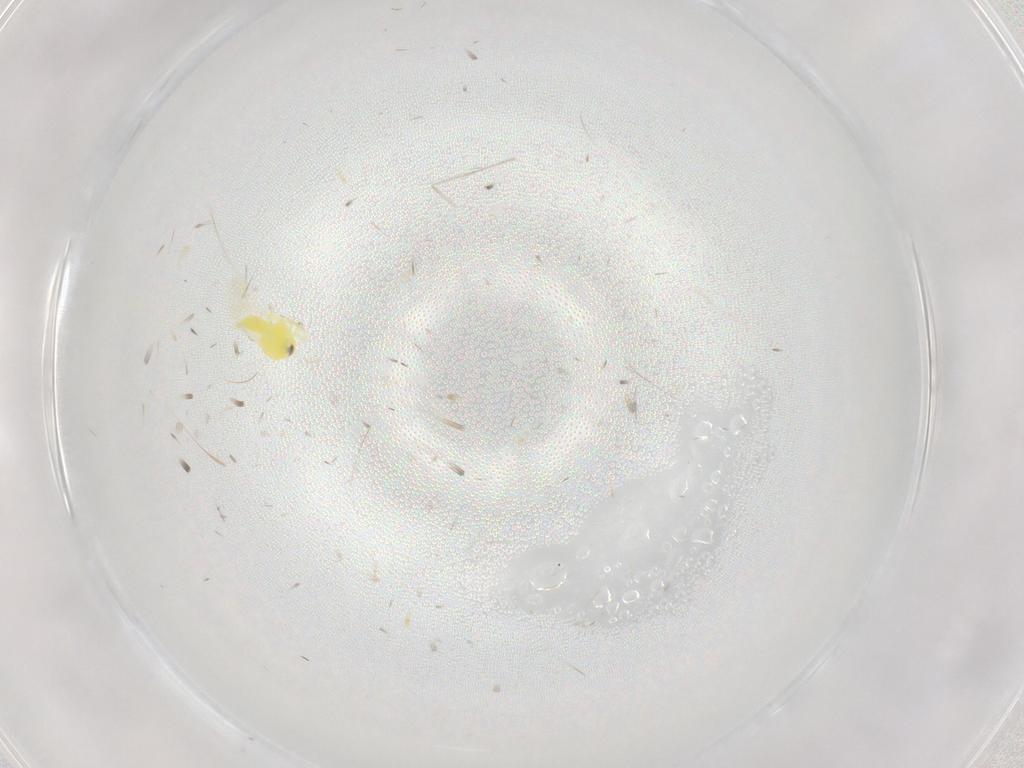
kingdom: Animalia
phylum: Arthropoda
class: Insecta
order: Hemiptera
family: Aleyrodidae
